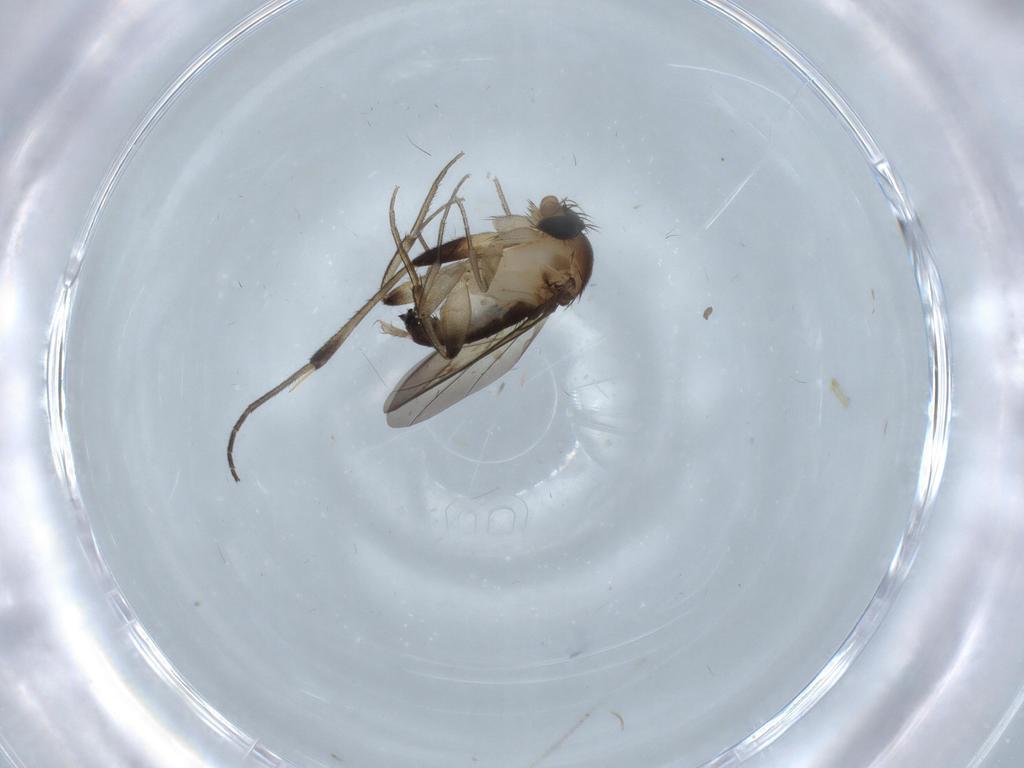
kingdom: Animalia
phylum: Arthropoda
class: Insecta
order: Diptera
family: Phoridae
